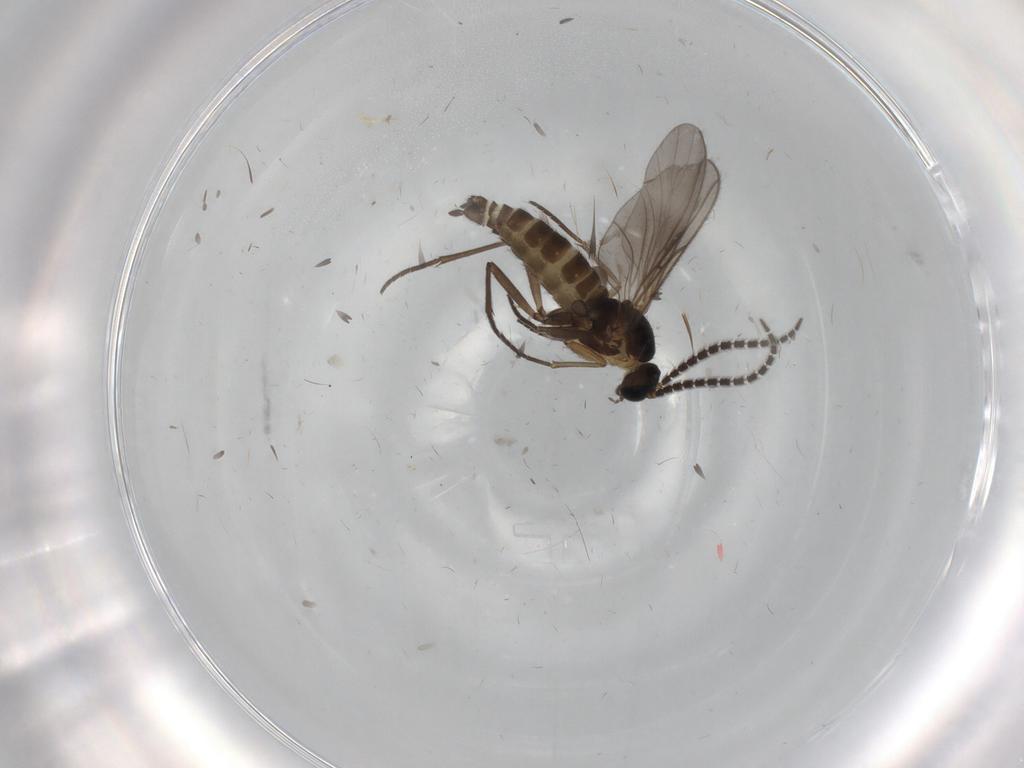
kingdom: Animalia
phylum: Arthropoda
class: Insecta
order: Diptera
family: Sciaridae
